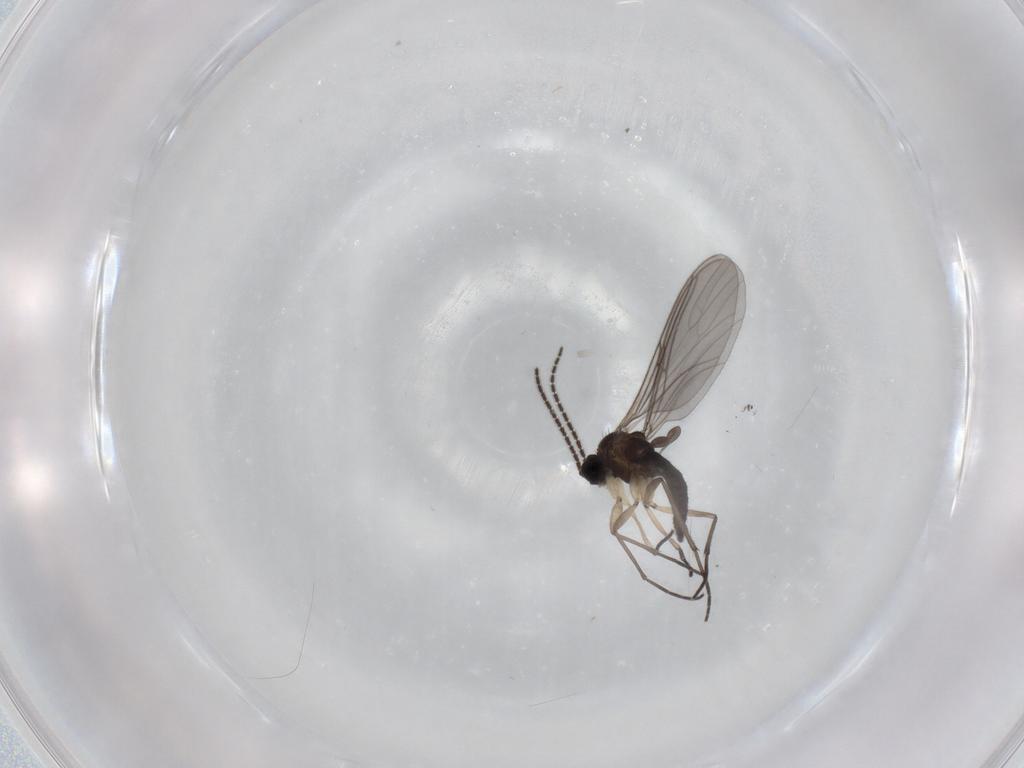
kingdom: Animalia
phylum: Arthropoda
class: Insecta
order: Diptera
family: Sciaridae
